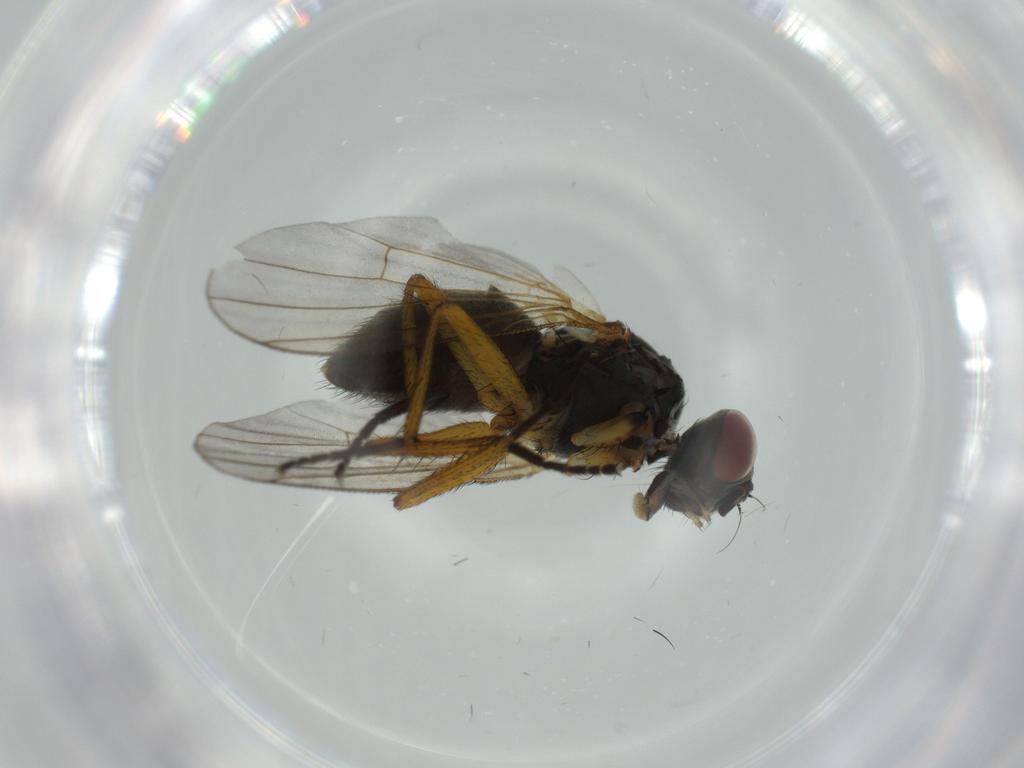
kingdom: Animalia
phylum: Arthropoda
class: Insecta
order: Diptera
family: Muscidae
